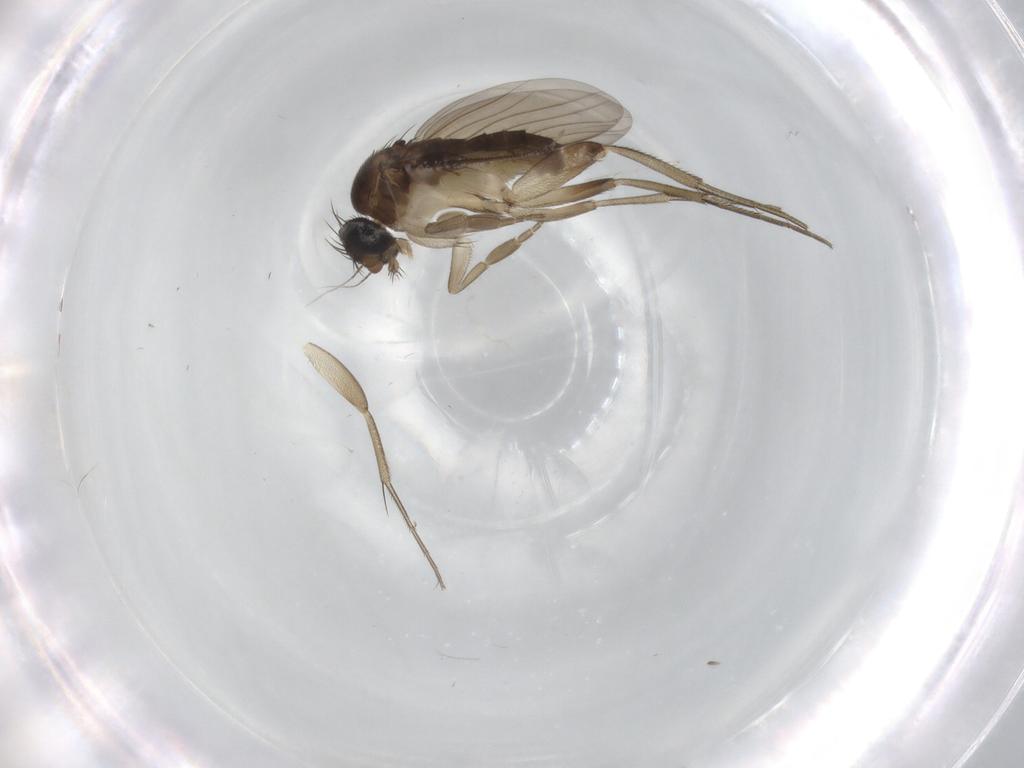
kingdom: Animalia
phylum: Arthropoda
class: Insecta
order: Diptera
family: Phoridae
